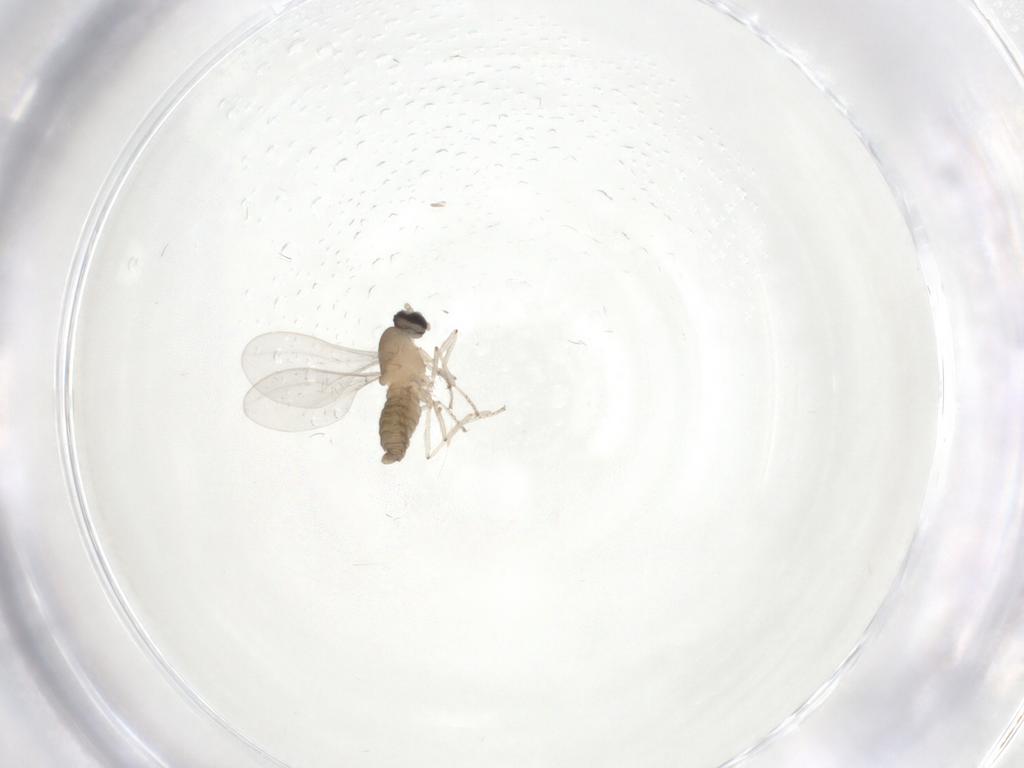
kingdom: Animalia
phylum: Arthropoda
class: Insecta
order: Diptera
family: Cecidomyiidae
